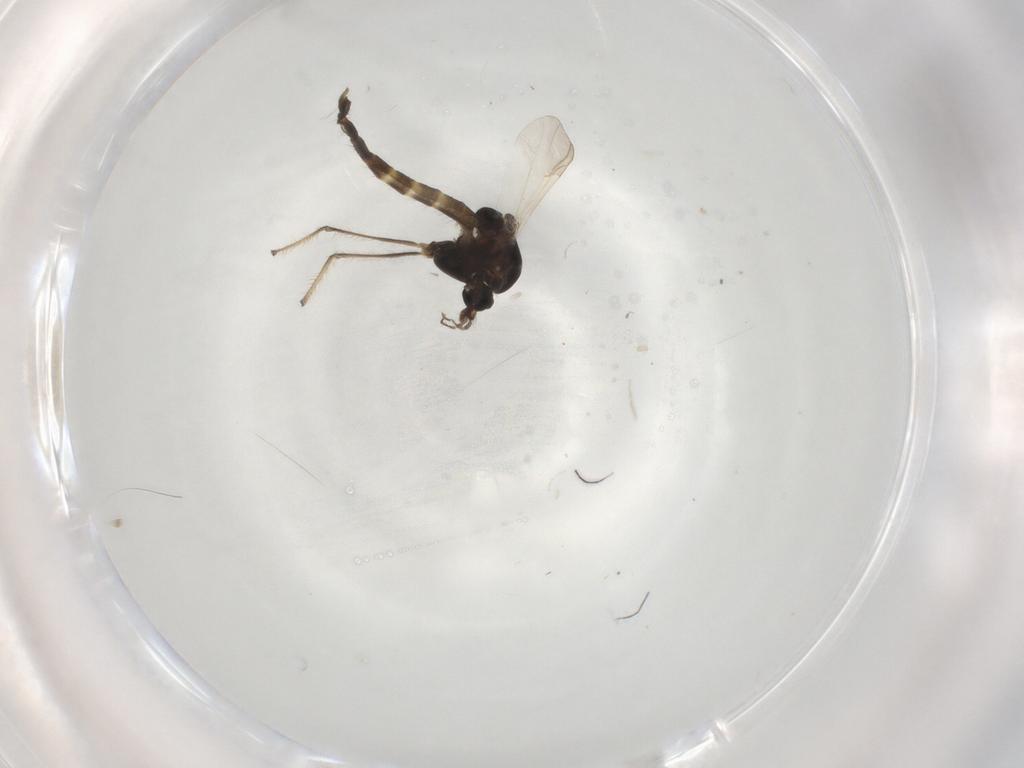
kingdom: Animalia
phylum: Arthropoda
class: Insecta
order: Diptera
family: Chironomidae
